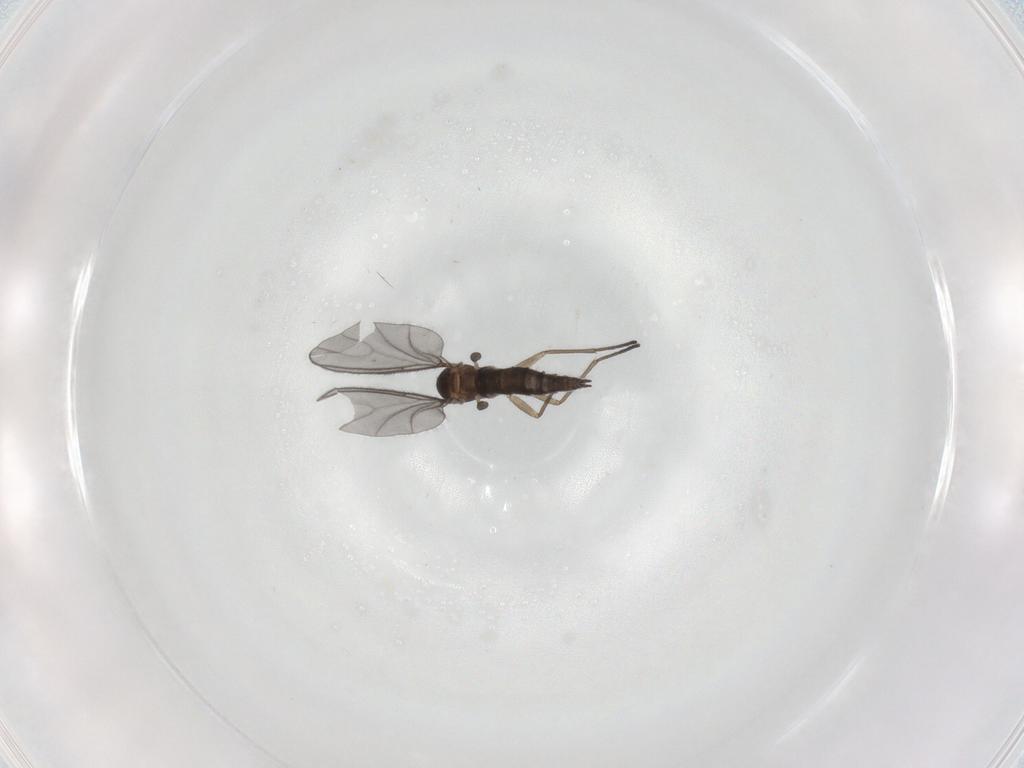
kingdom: Animalia
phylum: Arthropoda
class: Insecta
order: Diptera
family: Sciaridae
